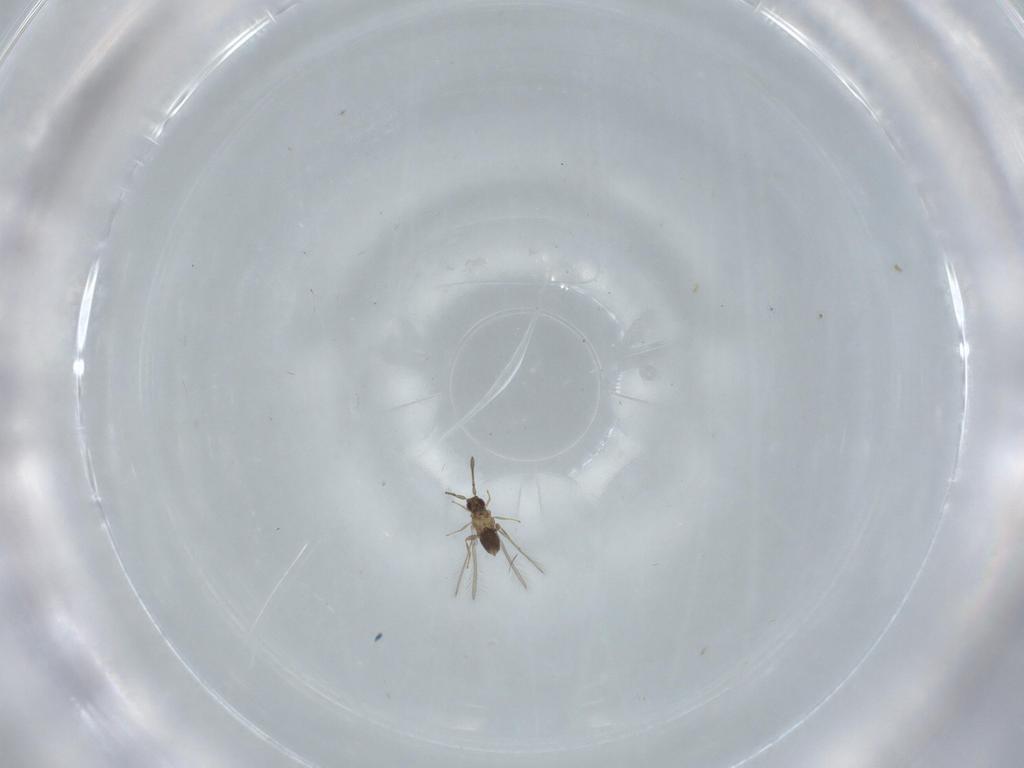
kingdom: Animalia
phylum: Arthropoda
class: Insecta
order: Hymenoptera
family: Mymaridae
